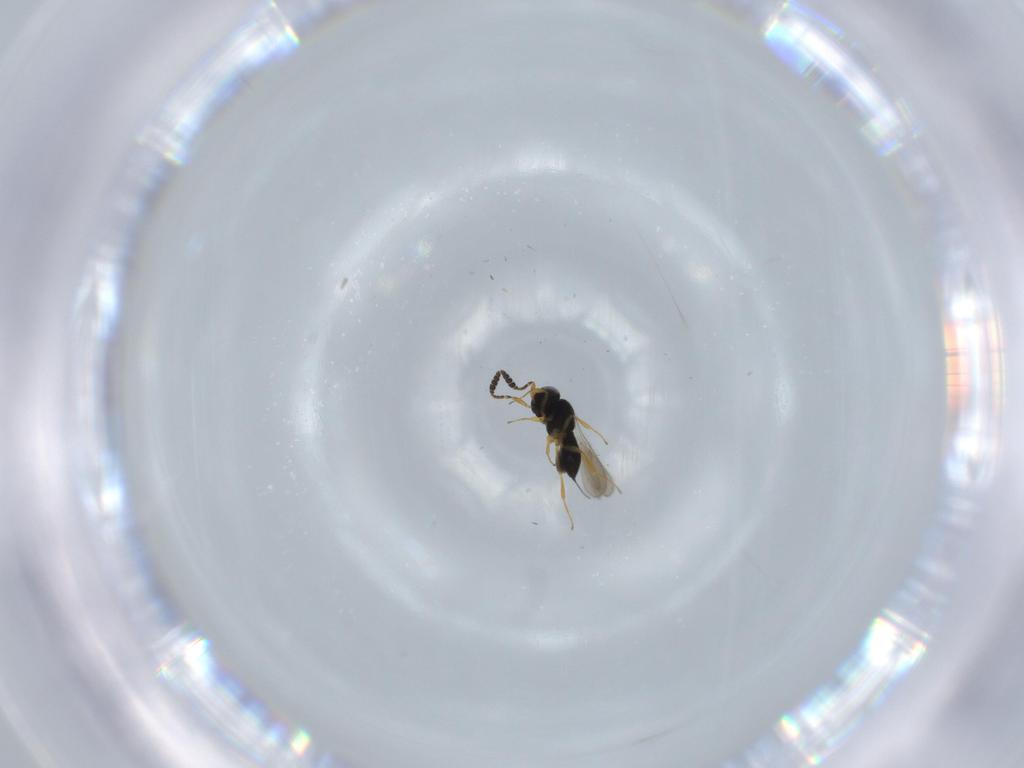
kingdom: Animalia
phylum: Arthropoda
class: Insecta
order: Hymenoptera
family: Scelionidae
